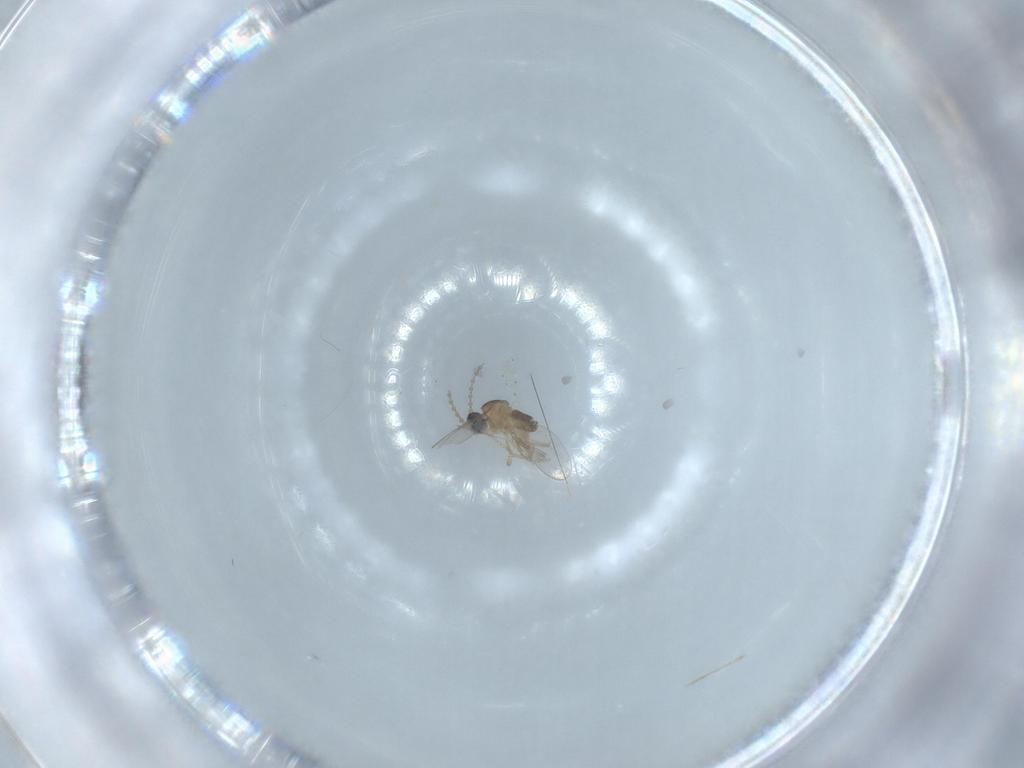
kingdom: Animalia
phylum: Arthropoda
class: Insecta
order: Diptera
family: Cecidomyiidae
